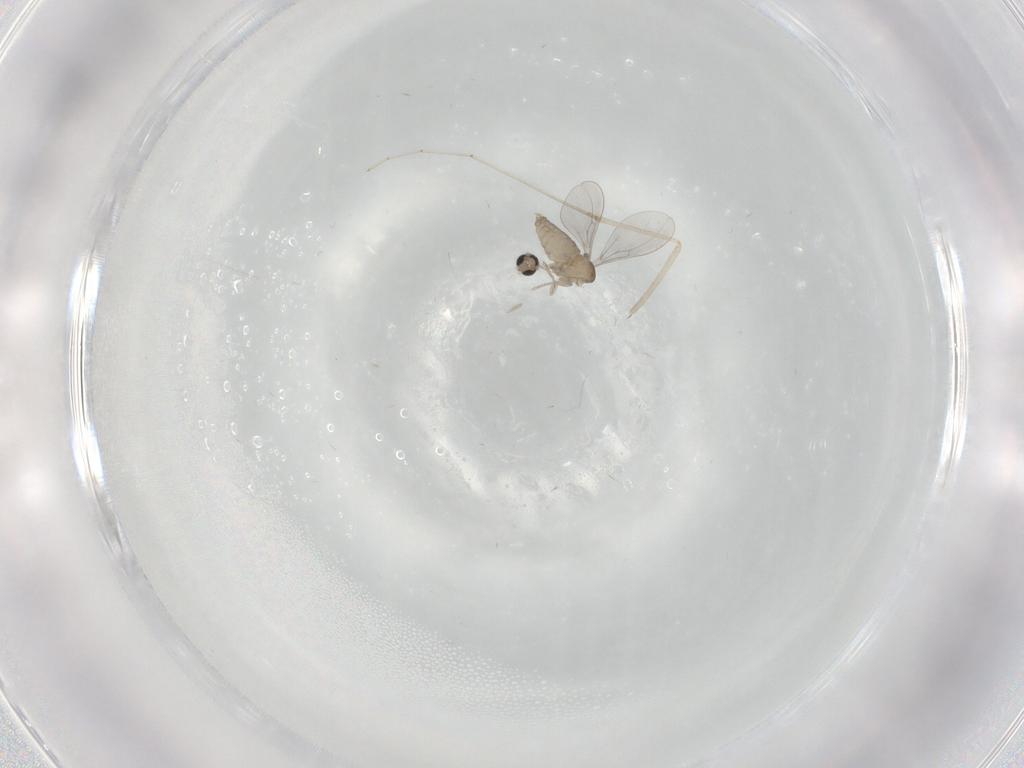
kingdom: Animalia
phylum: Arthropoda
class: Insecta
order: Diptera
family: Cecidomyiidae
